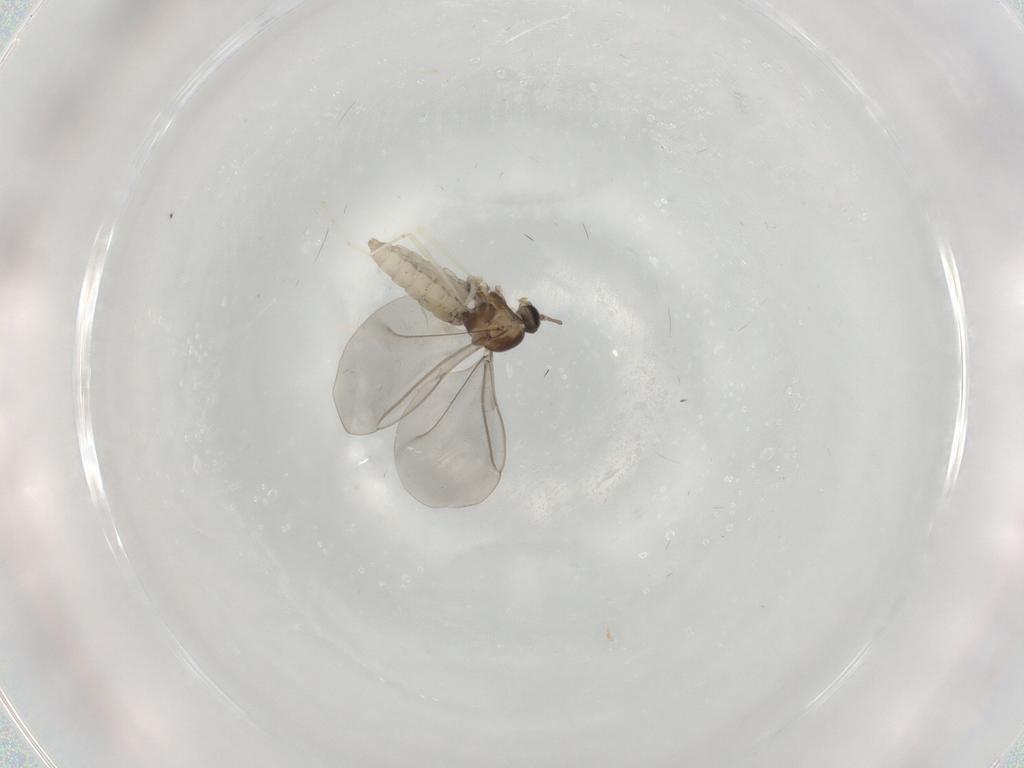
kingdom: Animalia
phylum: Arthropoda
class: Insecta
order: Diptera
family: Cecidomyiidae
